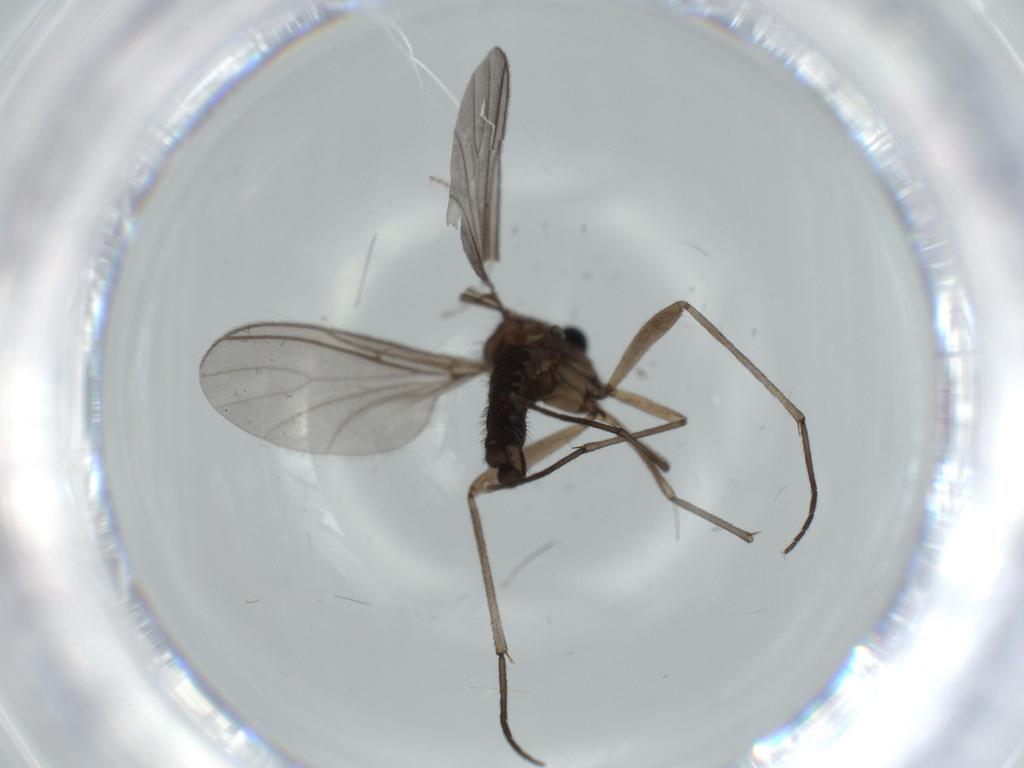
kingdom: Animalia
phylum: Arthropoda
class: Insecta
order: Diptera
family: Sciaridae
